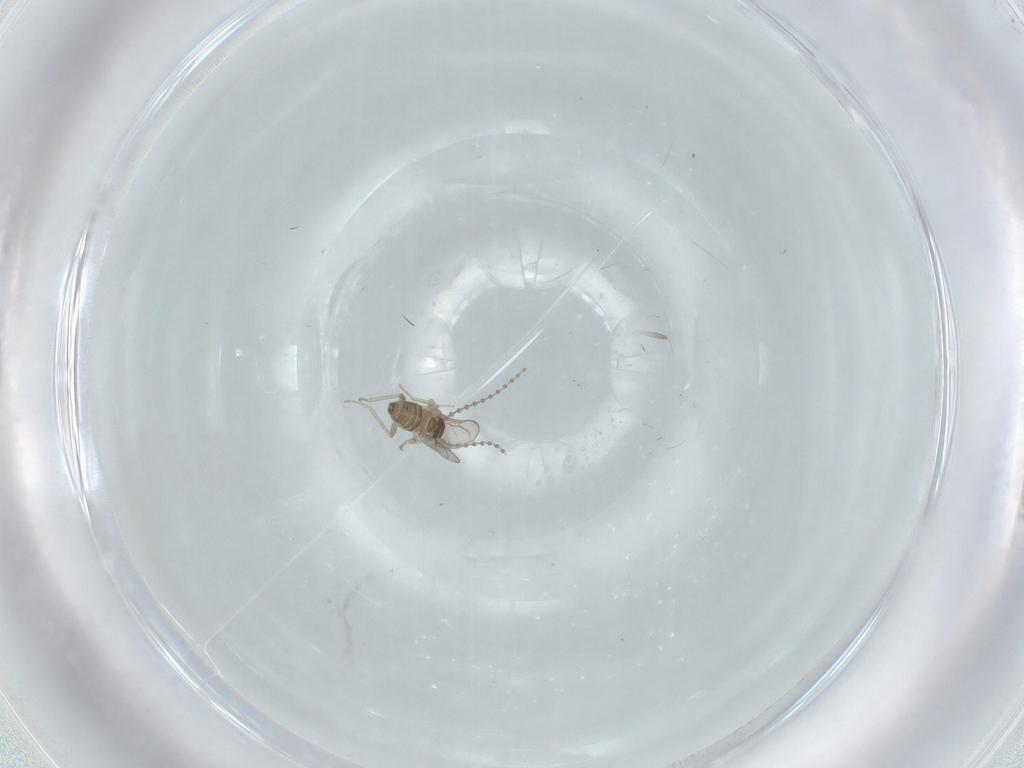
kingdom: Animalia
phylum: Arthropoda
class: Insecta
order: Diptera
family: Cecidomyiidae
